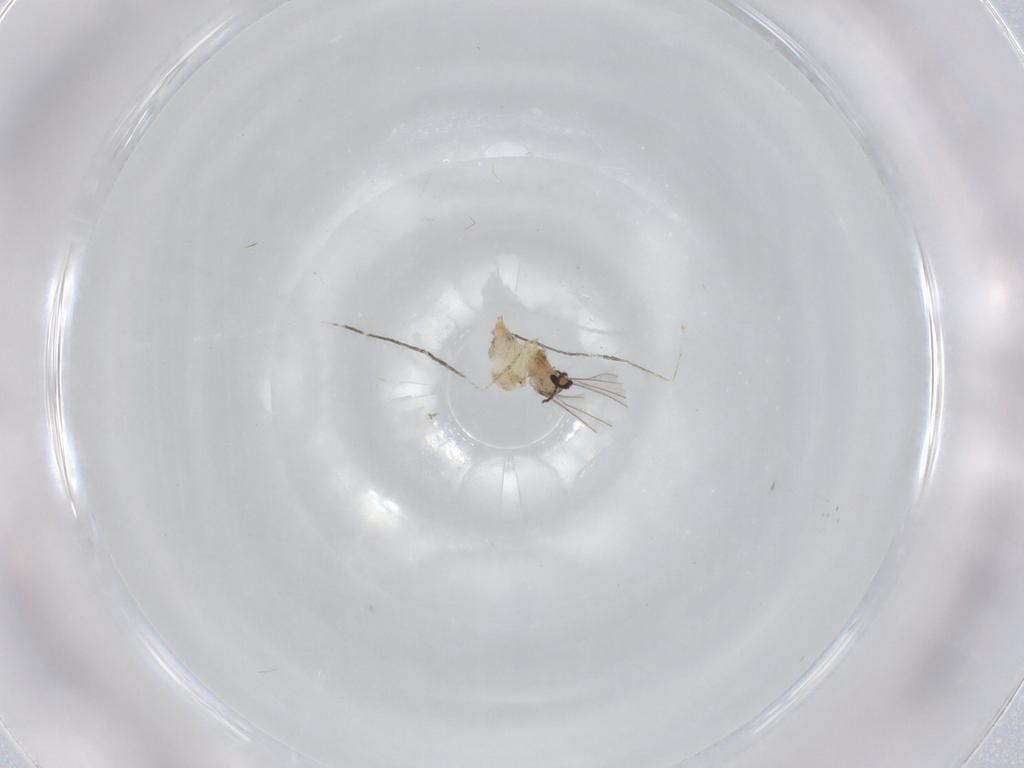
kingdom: Animalia
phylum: Arthropoda
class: Insecta
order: Diptera
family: Cecidomyiidae
